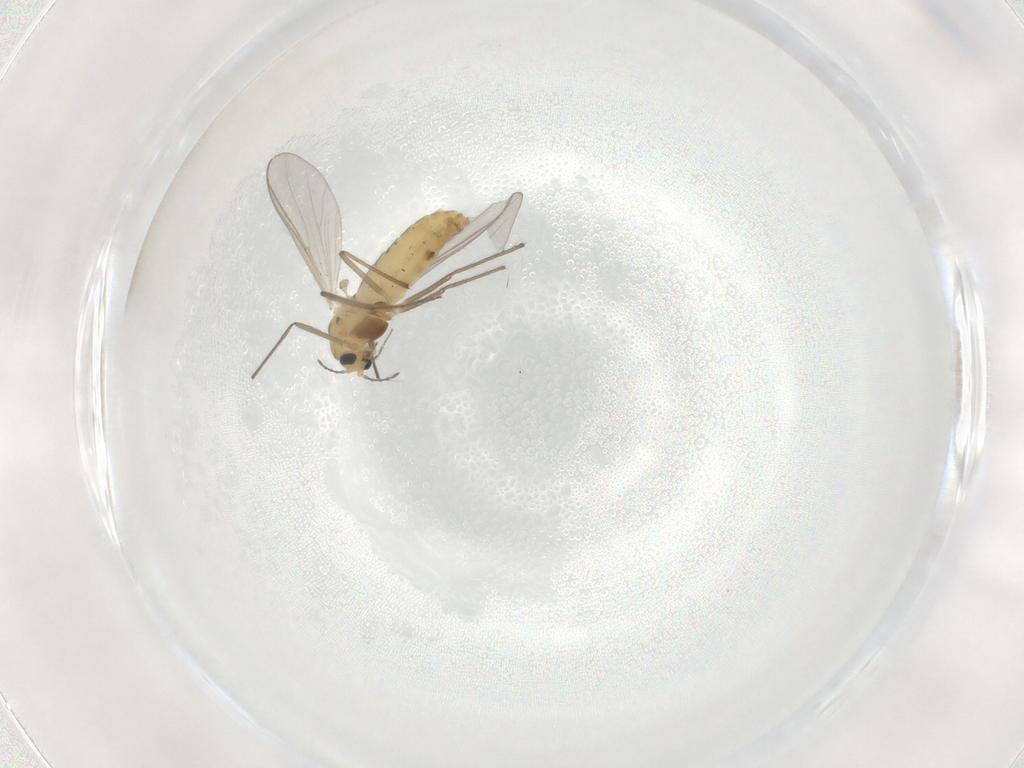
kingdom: Animalia
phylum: Arthropoda
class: Insecta
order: Diptera
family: Chironomidae
